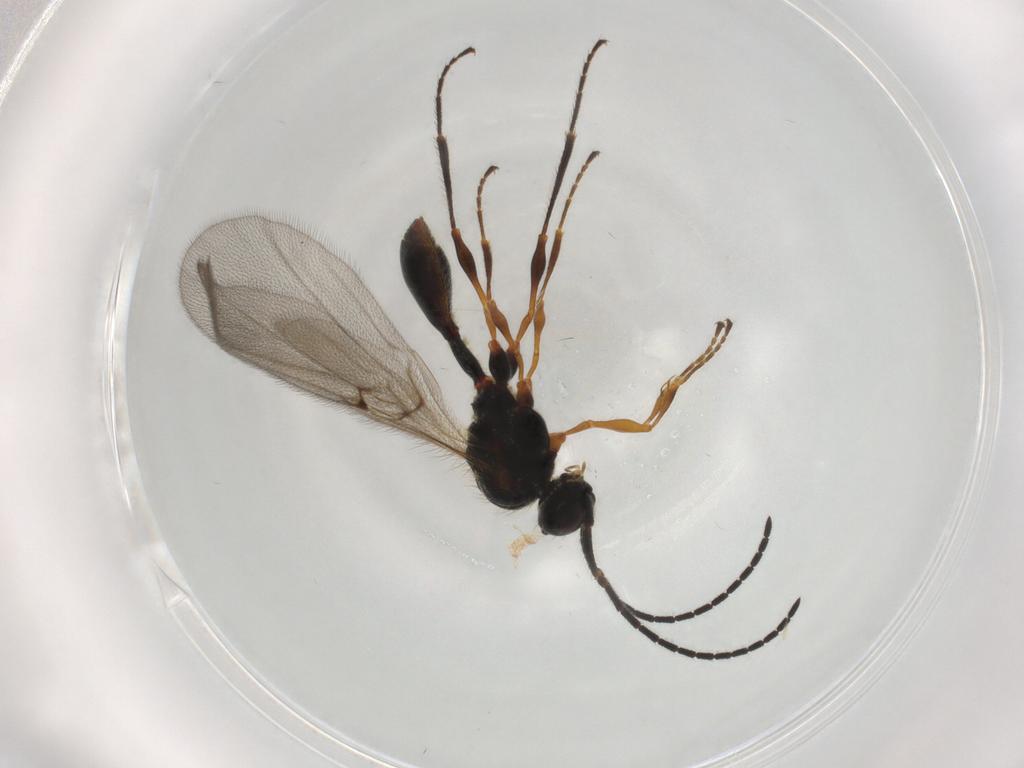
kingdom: Animalia
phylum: Arthropoda
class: Insecta
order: Hymenoptera
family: Diapriidae
